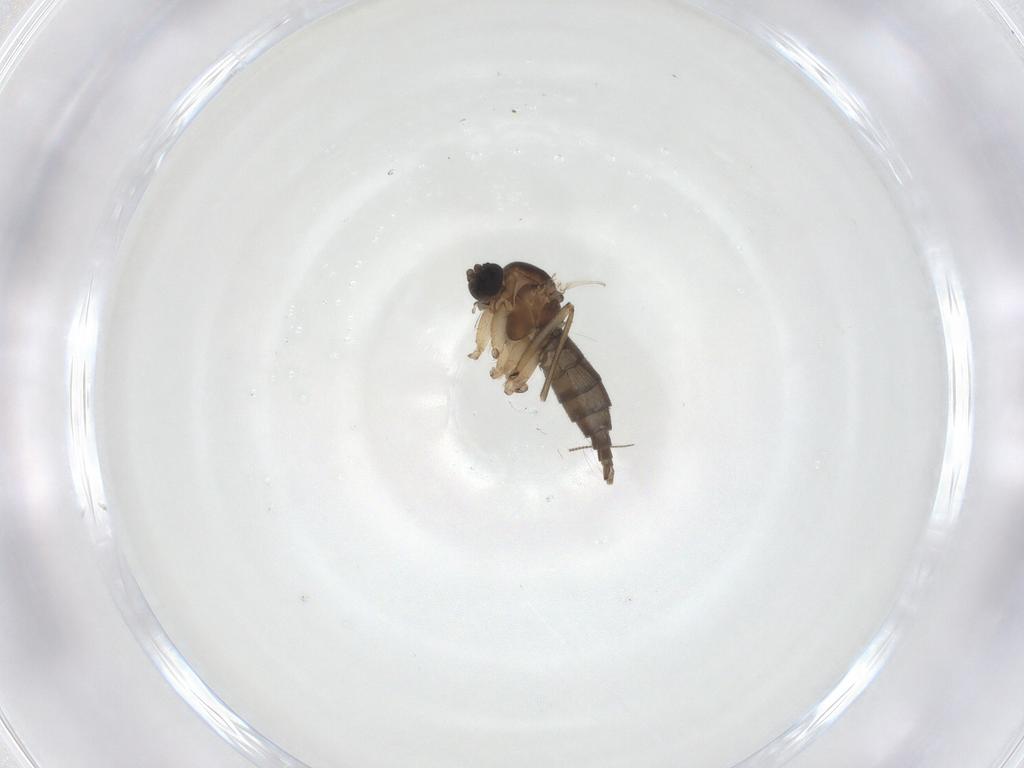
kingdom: Animalia
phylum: Arthropoda
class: Insecta
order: Diptera
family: Sciaridae
